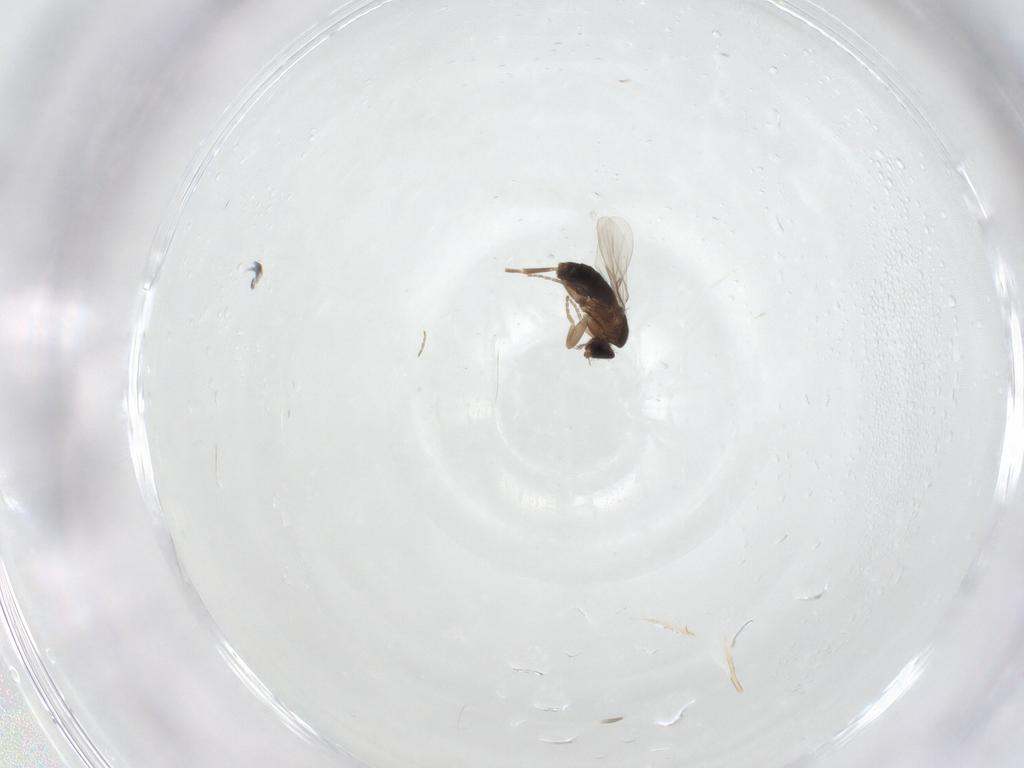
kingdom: Animalia
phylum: Arthropoda
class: Insecta
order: Diptera
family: Phoridae
